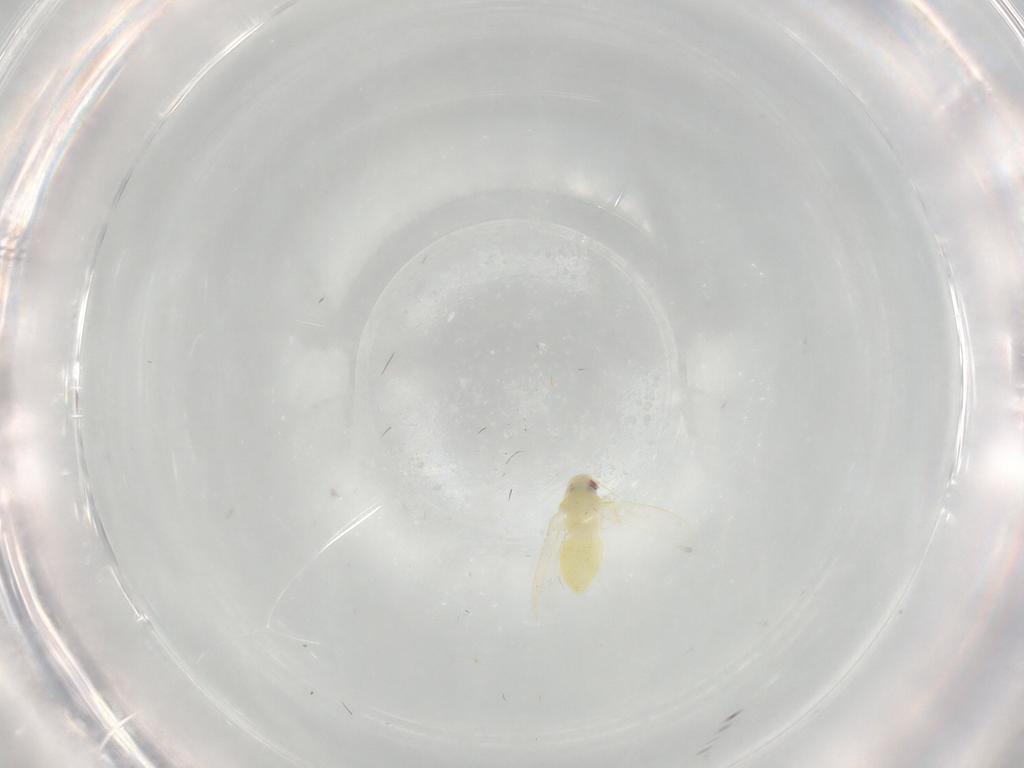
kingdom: Animalia
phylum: Arthropoda
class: Insecta
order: Hemiptera
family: Aleyrodidae
